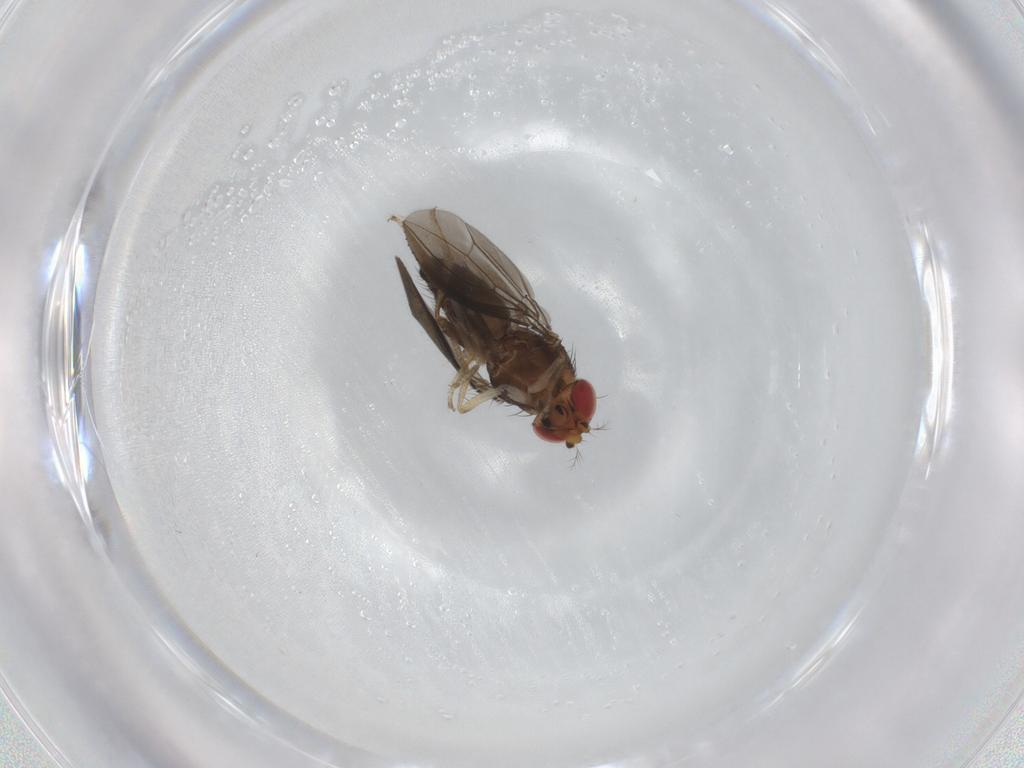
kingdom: Animalia
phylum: Arthropoda
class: Insecta
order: Diptera
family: Drosophilidae
